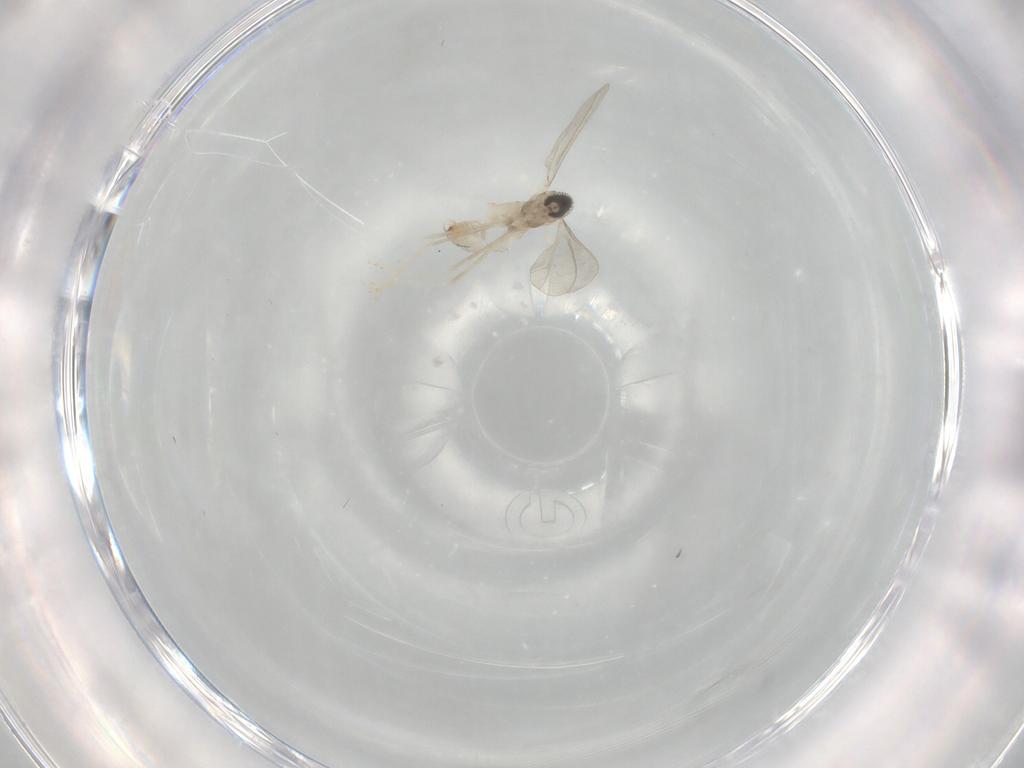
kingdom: Animalia
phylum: Arthropoda
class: Insecta
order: Diptera
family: Cecidomyiidae
